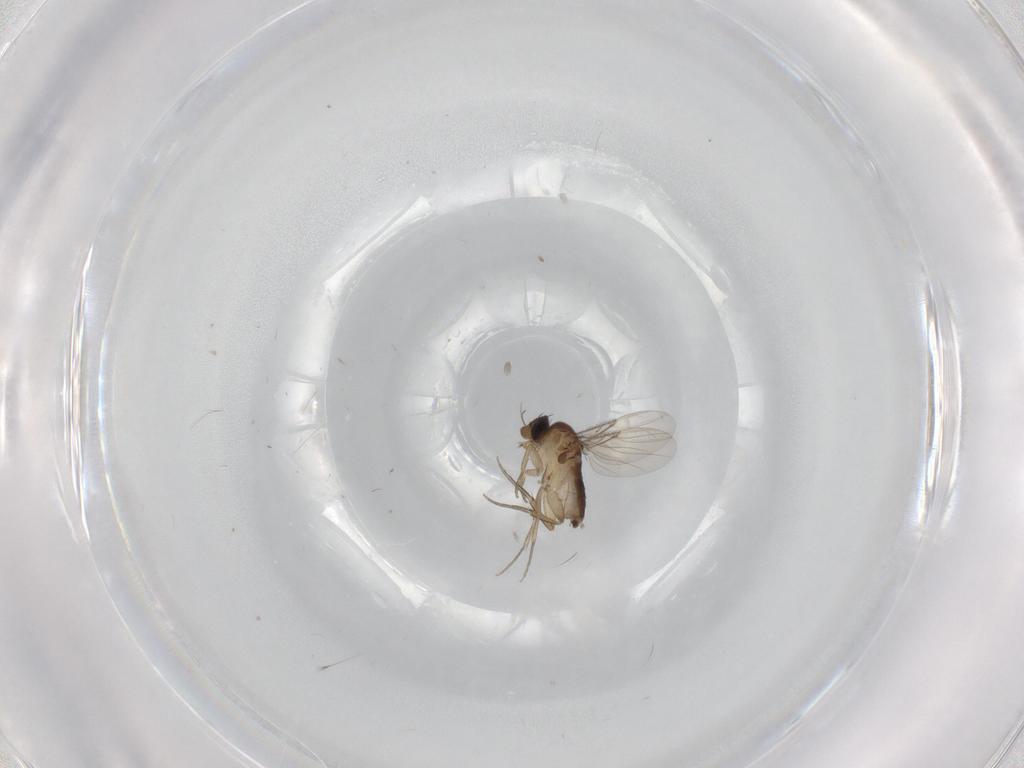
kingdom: Animalia
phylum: Arthropoda
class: Insecta
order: Diptera
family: Phoridae
